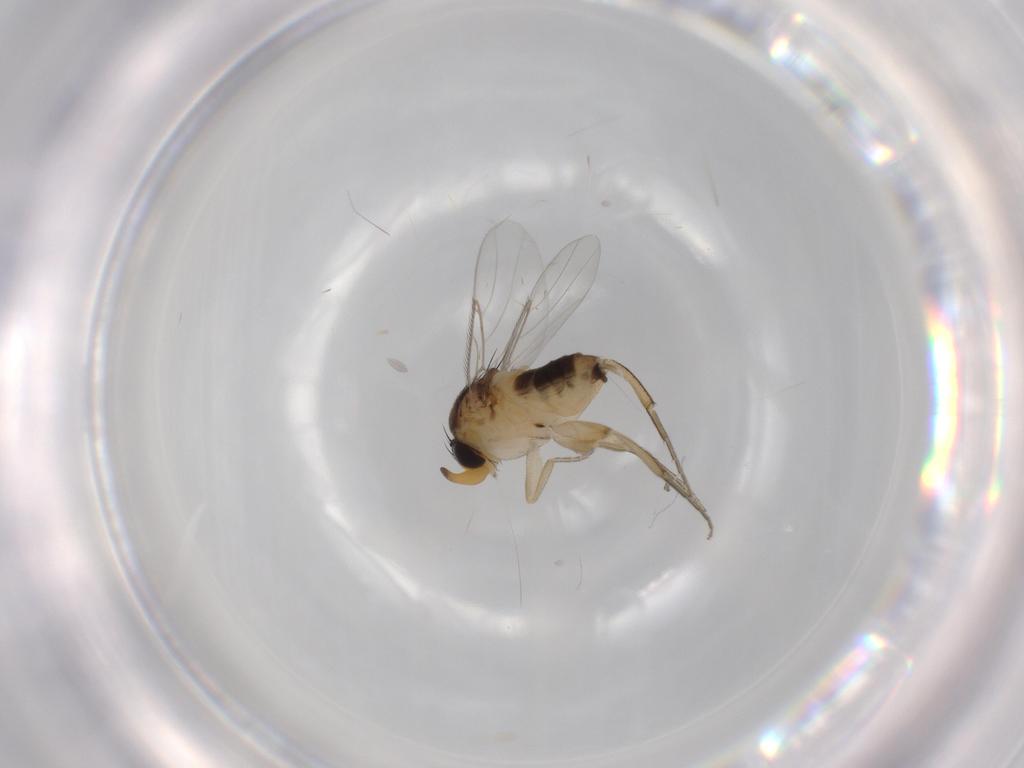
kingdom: Animalia
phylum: Arthropoda
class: Insecta
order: Diptera
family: Phoridae
